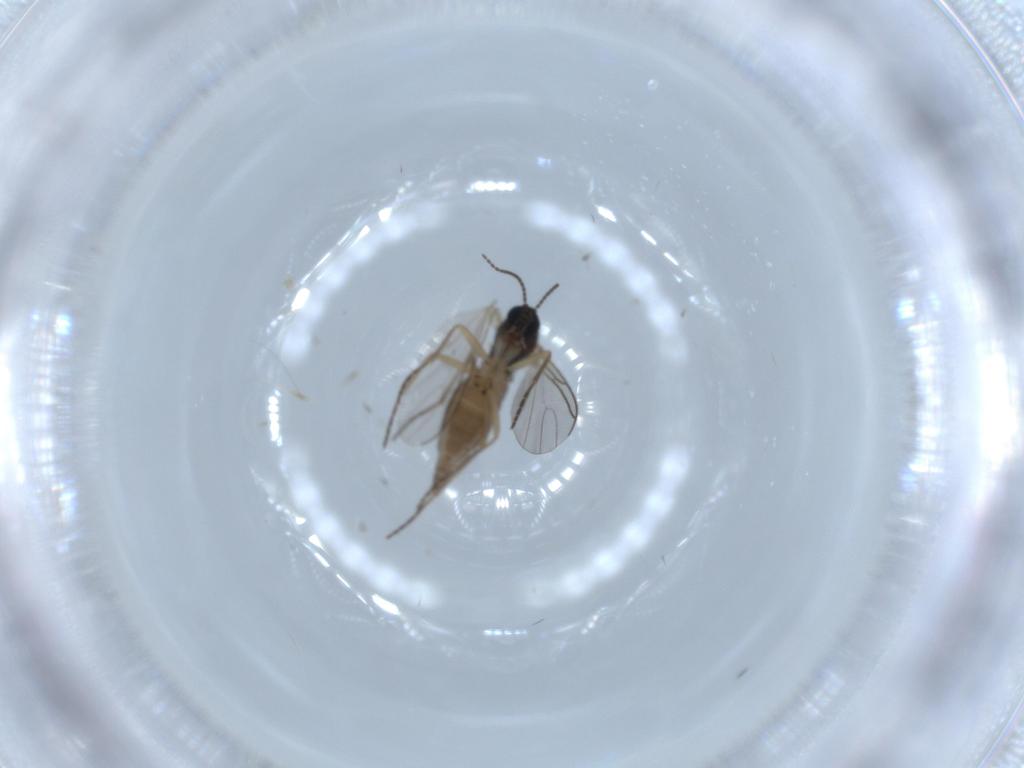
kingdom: Animalia
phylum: Arthropoda
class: Insecta
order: Diptera
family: Sciaridae
